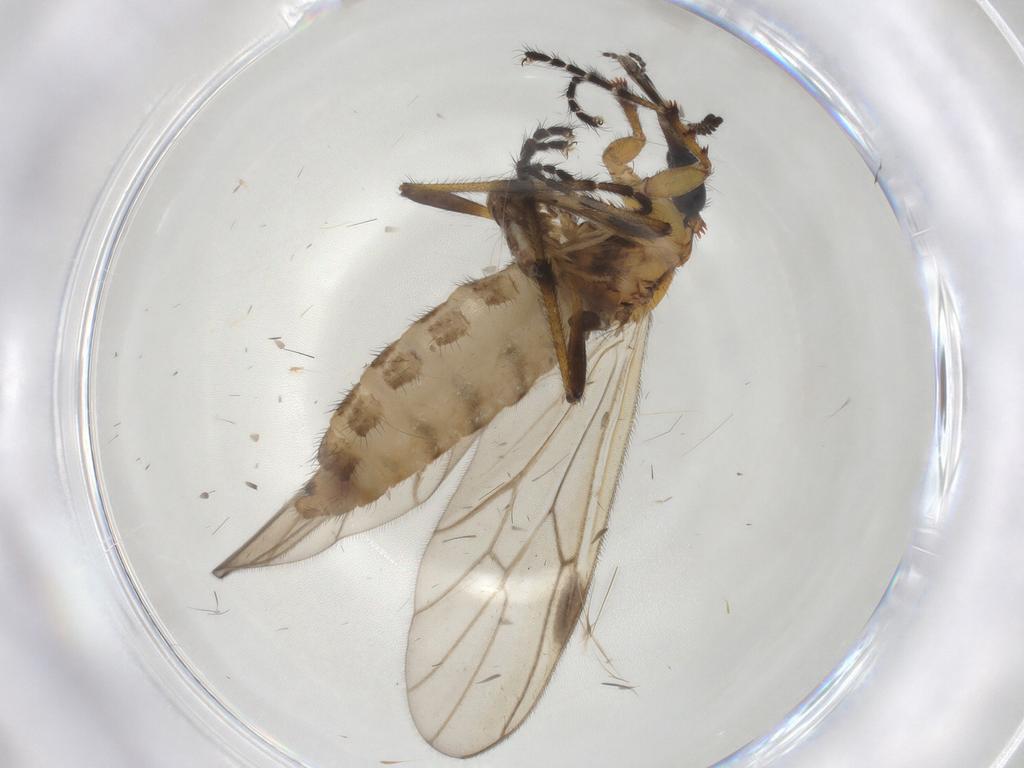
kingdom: Animalia
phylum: Arthropoda
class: Insecta
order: Diptera
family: Bibionidae
